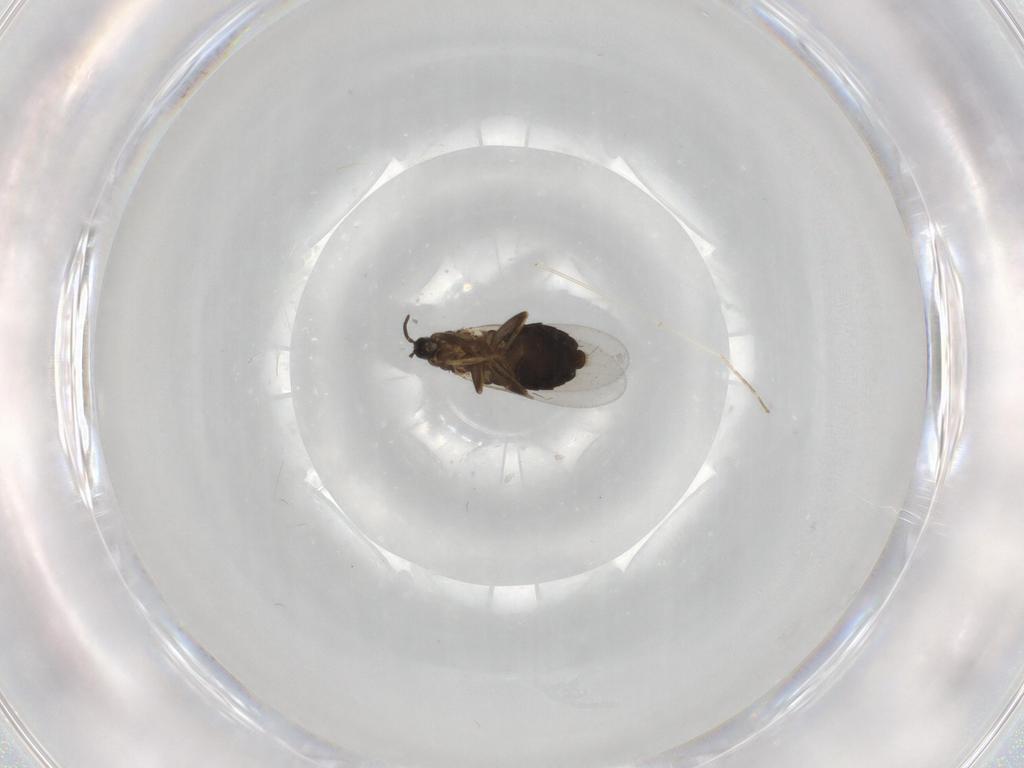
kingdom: Animalia
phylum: Arthropoda
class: Insecta
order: Diptera
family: Scatopsidae
